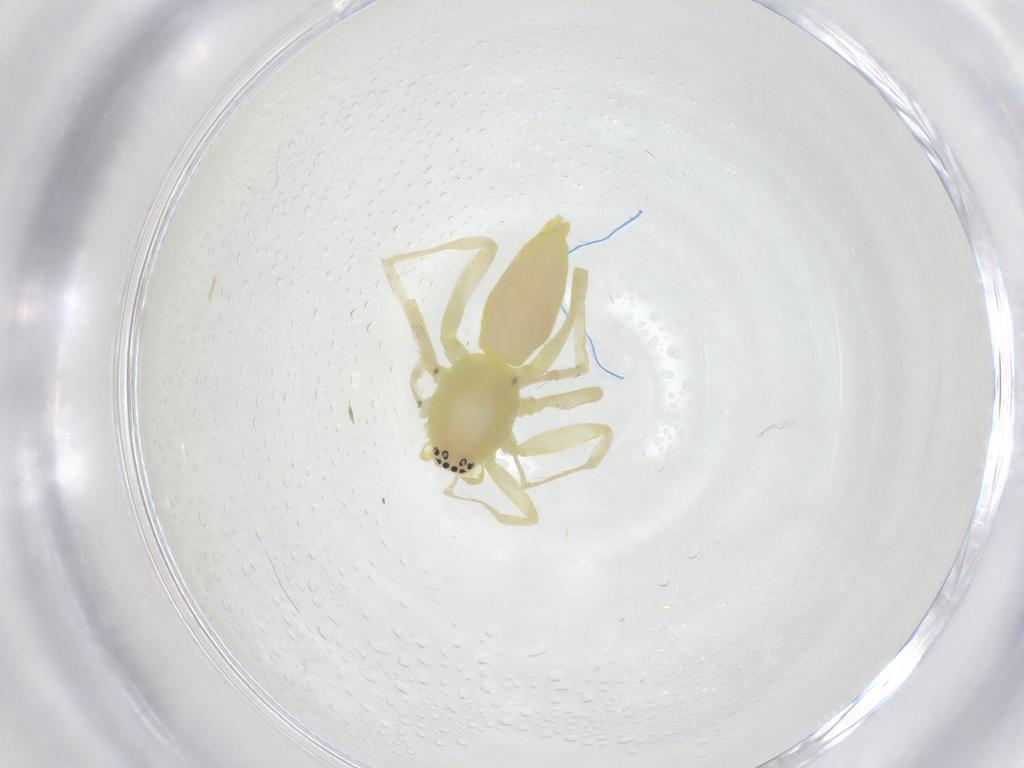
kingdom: Animalia
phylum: Arthropoda
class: Arachnida
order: Araneae
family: Clubionidae
